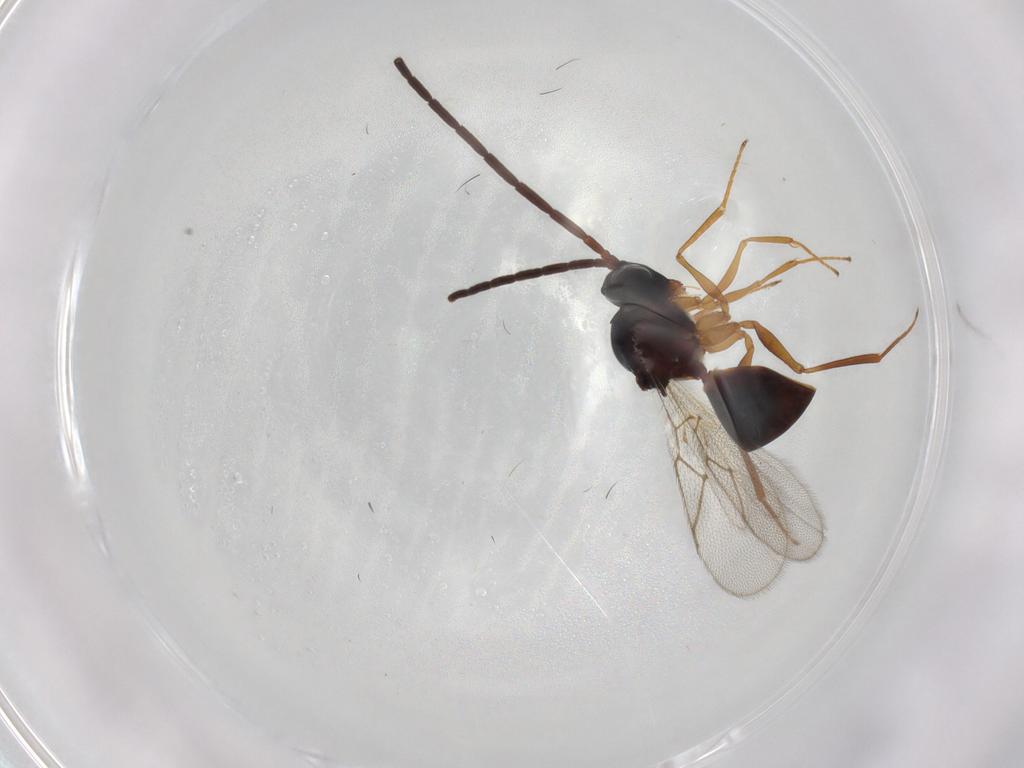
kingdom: Animalia
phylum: Arthropoda
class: Insecta
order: Hymenoptera
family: Figitidae
